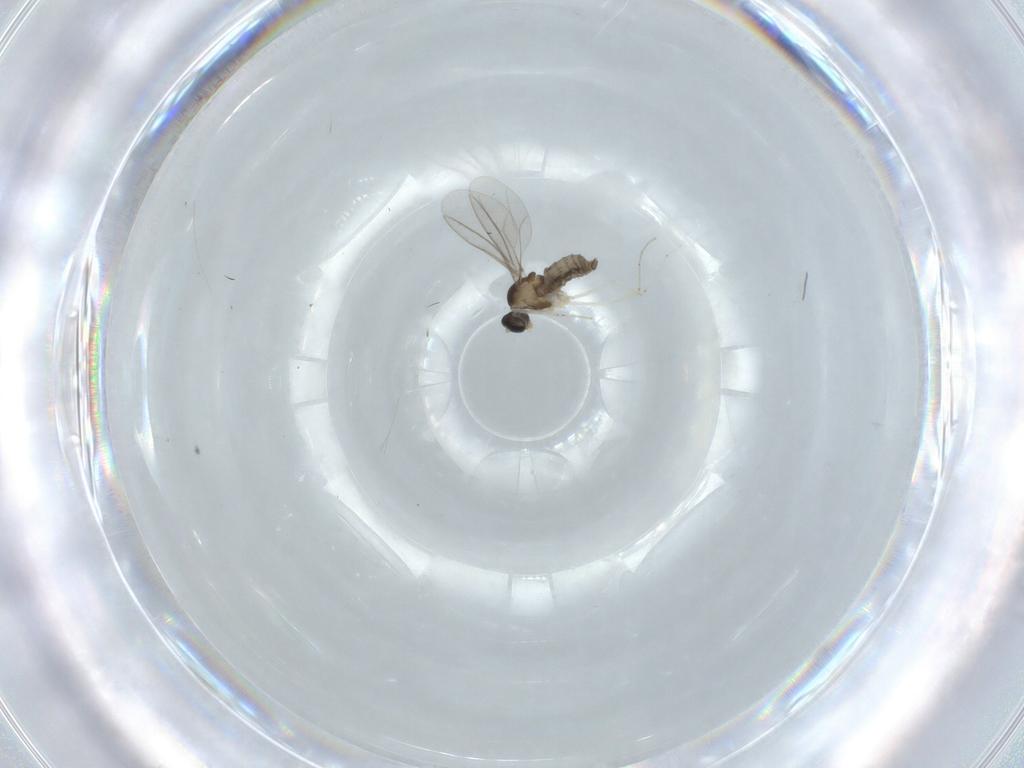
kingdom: Animalia
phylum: Arthropoda
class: Insecta
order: Diptera
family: Cecidomyiidae
